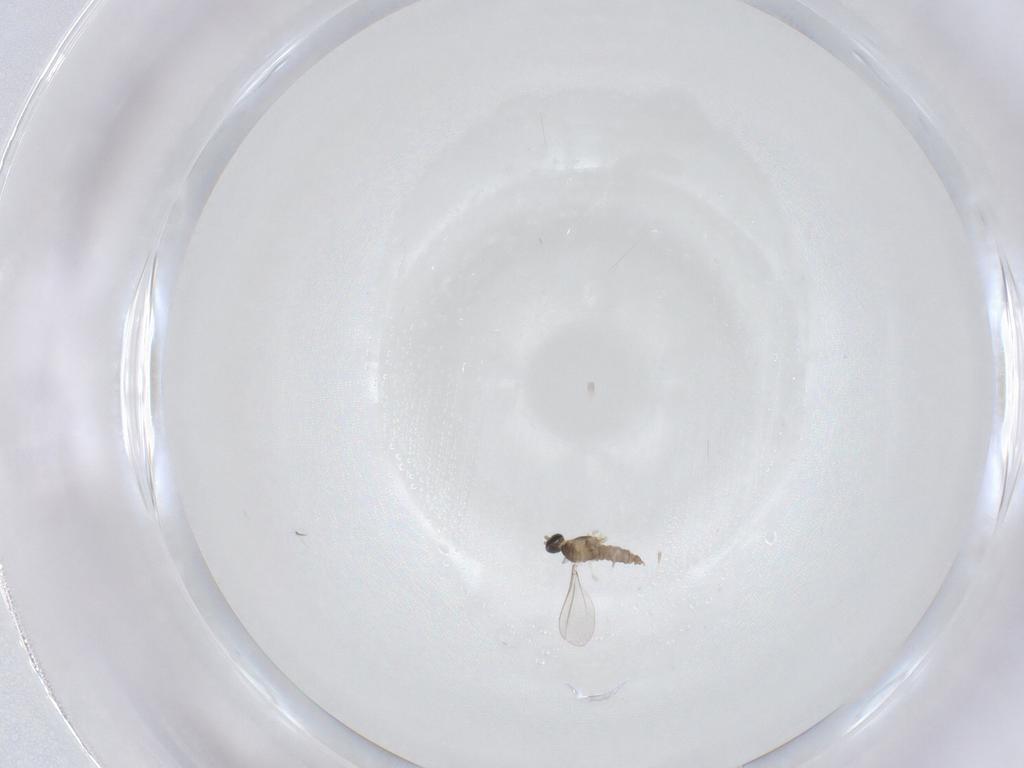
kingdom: Animalia
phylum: Arthropoda
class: Insecta
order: Diptera
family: Cecidomyiidae
